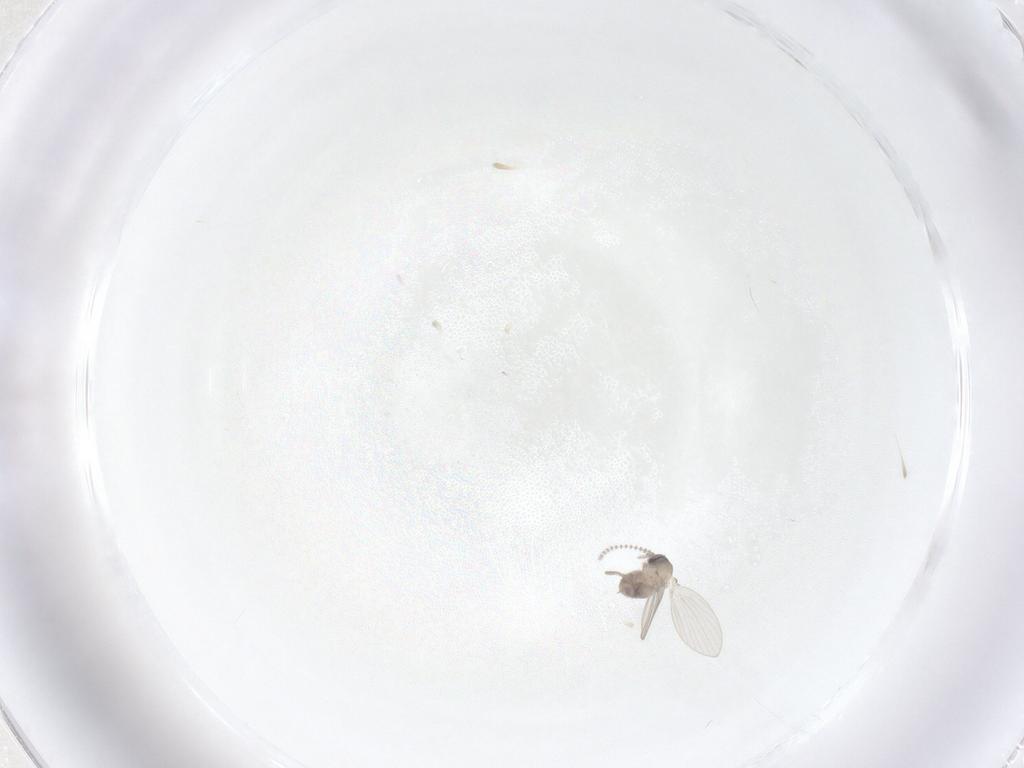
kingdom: Animalia
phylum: Arthropoda
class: Insecta
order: Diptera
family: Psychodidae
